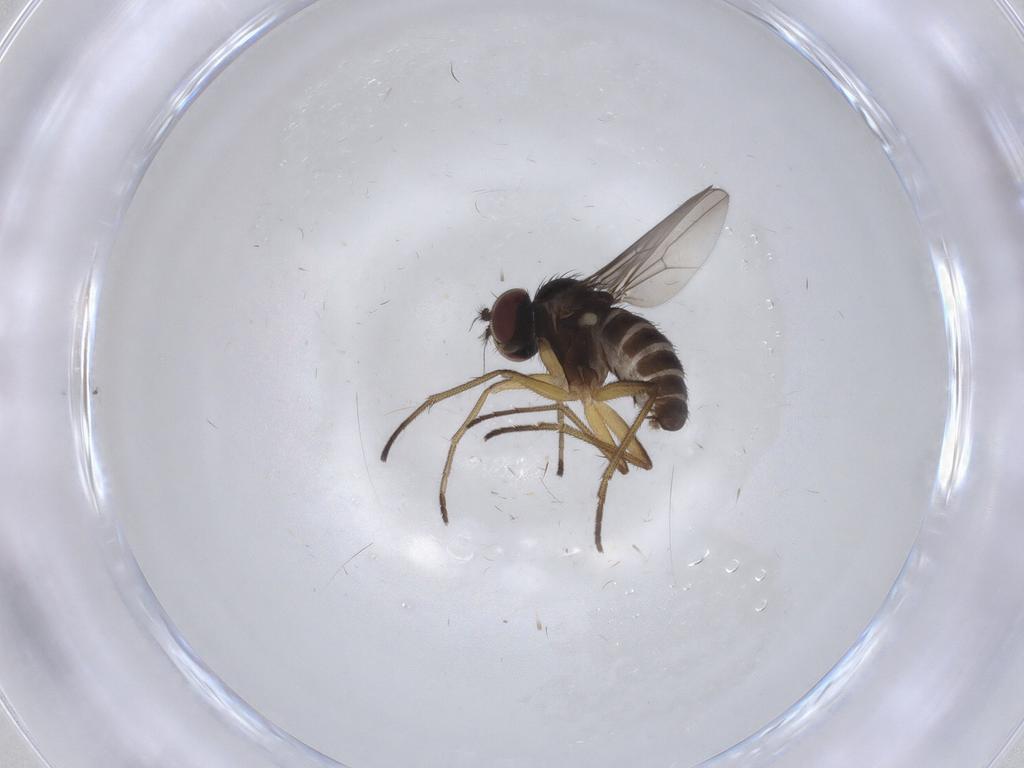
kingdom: Animalia
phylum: Arthropoda
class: Insecta
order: Diptera
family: Dolichopodidae
